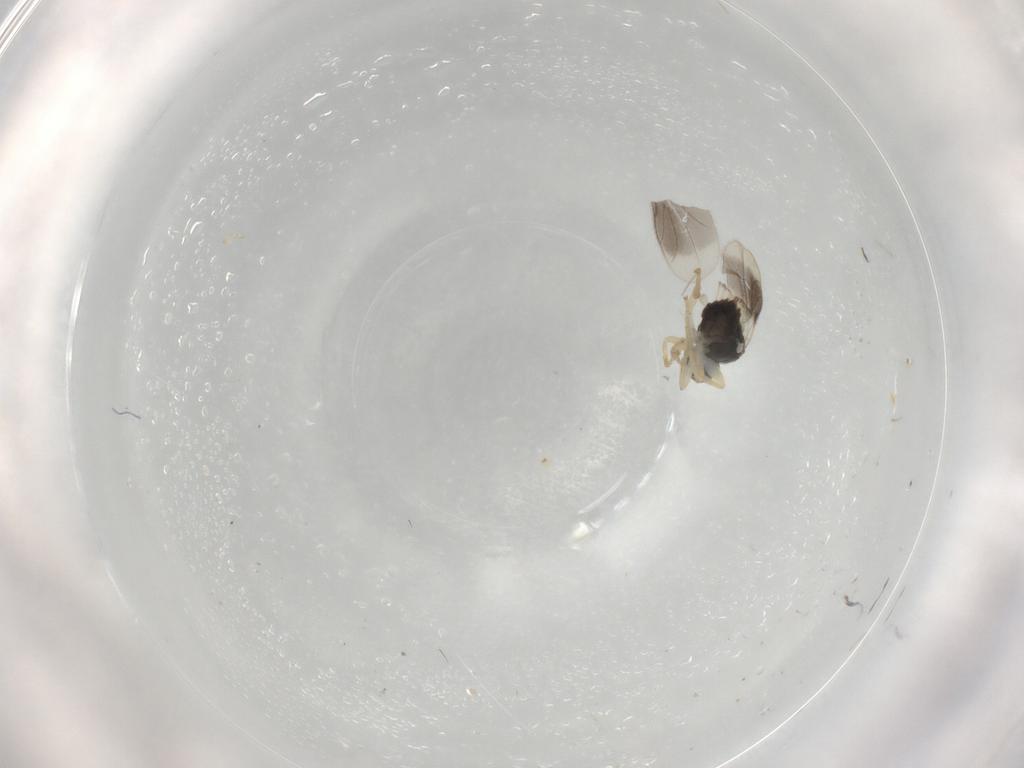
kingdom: Animalia
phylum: Arthropoda
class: Insecta
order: Diptera
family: Hybotidae
